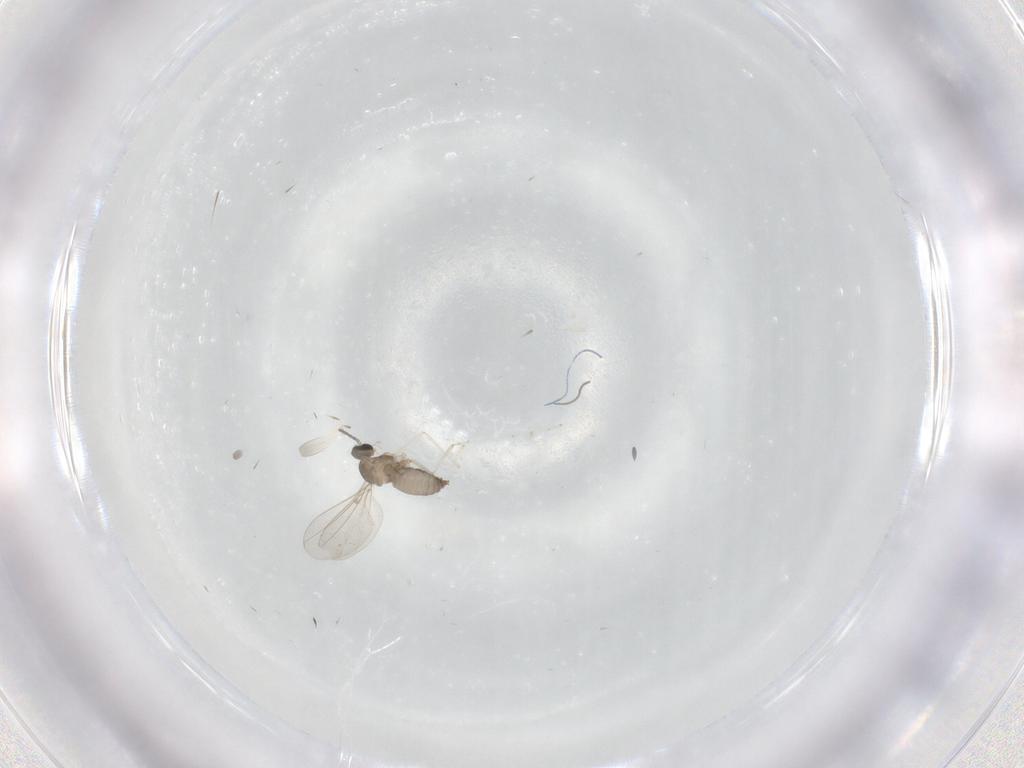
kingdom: Animalia
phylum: Arthropoda
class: Insecta
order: Diptera
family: Cecidomyiidae
